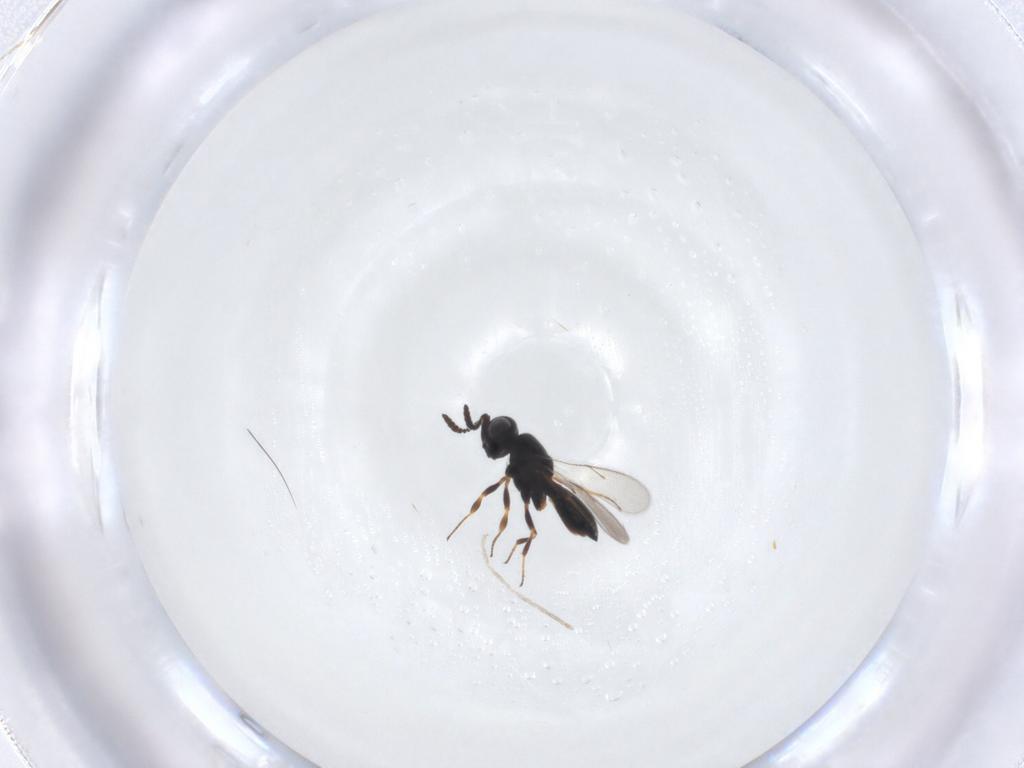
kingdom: Animalia
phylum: Arthropoda
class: Insecta
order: Hymenoptera
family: Scelionidae
